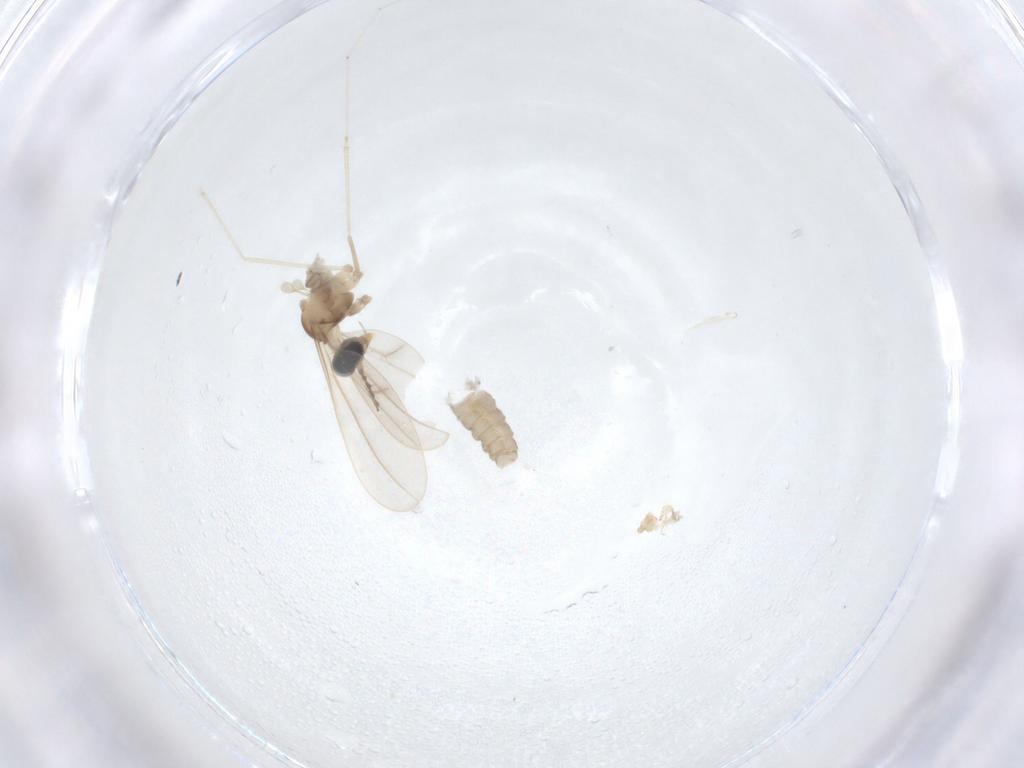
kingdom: Animalia
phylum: Arthropoda
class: Insecta
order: Diptera
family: Cecidomyiidae
